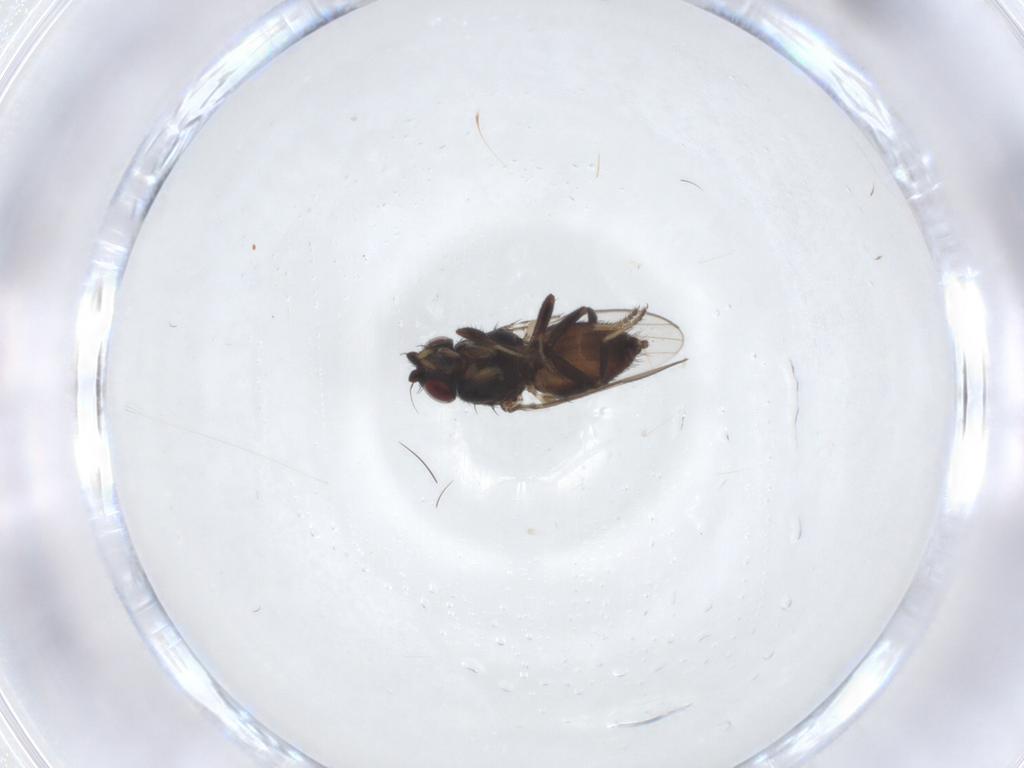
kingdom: Animalia
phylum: Arthropoda
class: Insecta
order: Diptera
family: Milichiidae
